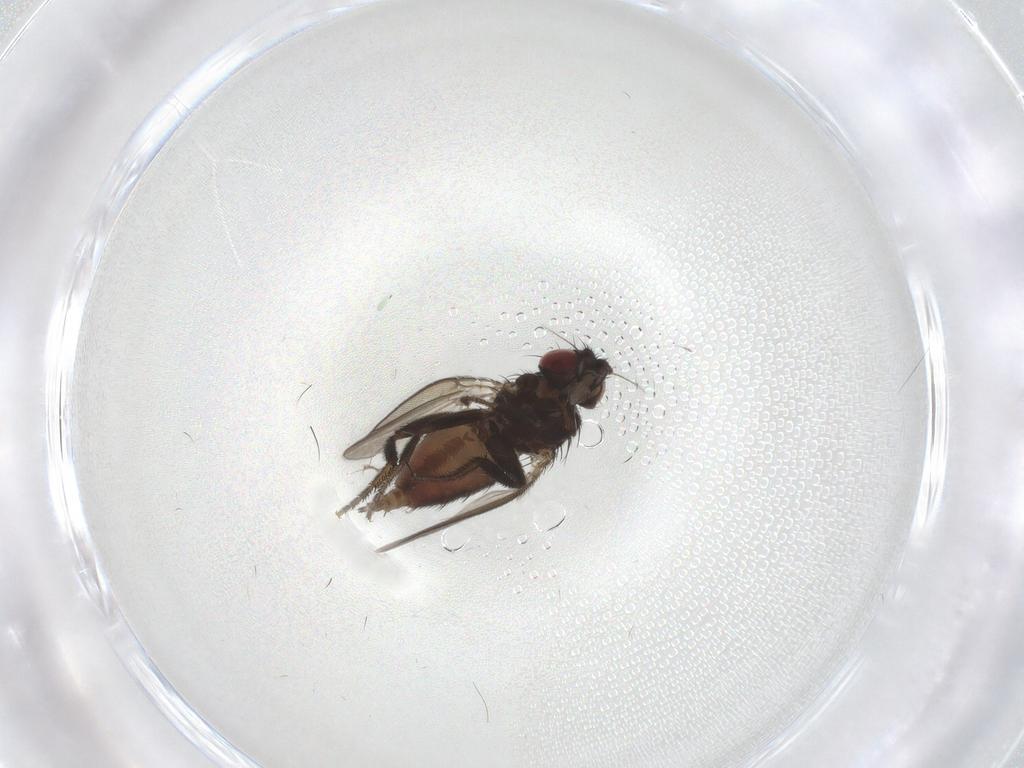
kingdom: Animalia
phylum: Arthropoda
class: Insecta
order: Diptera
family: Milichiidae
